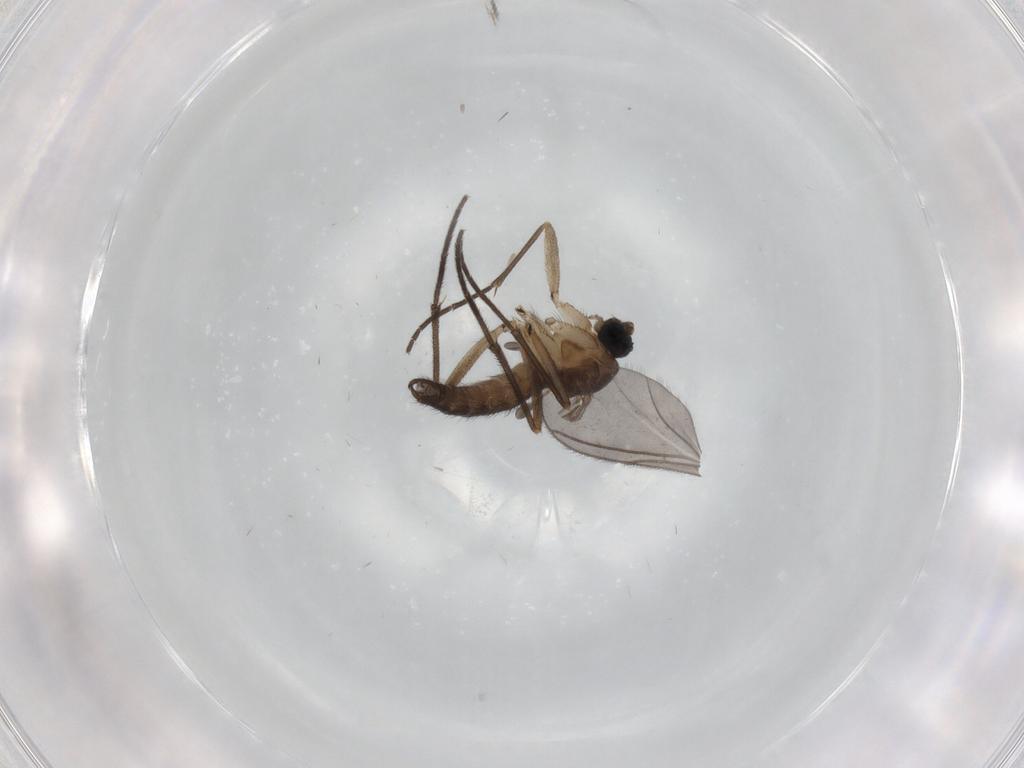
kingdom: Animalia
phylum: Arthropoda
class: Insecta
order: Diptera
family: Sciaridae
